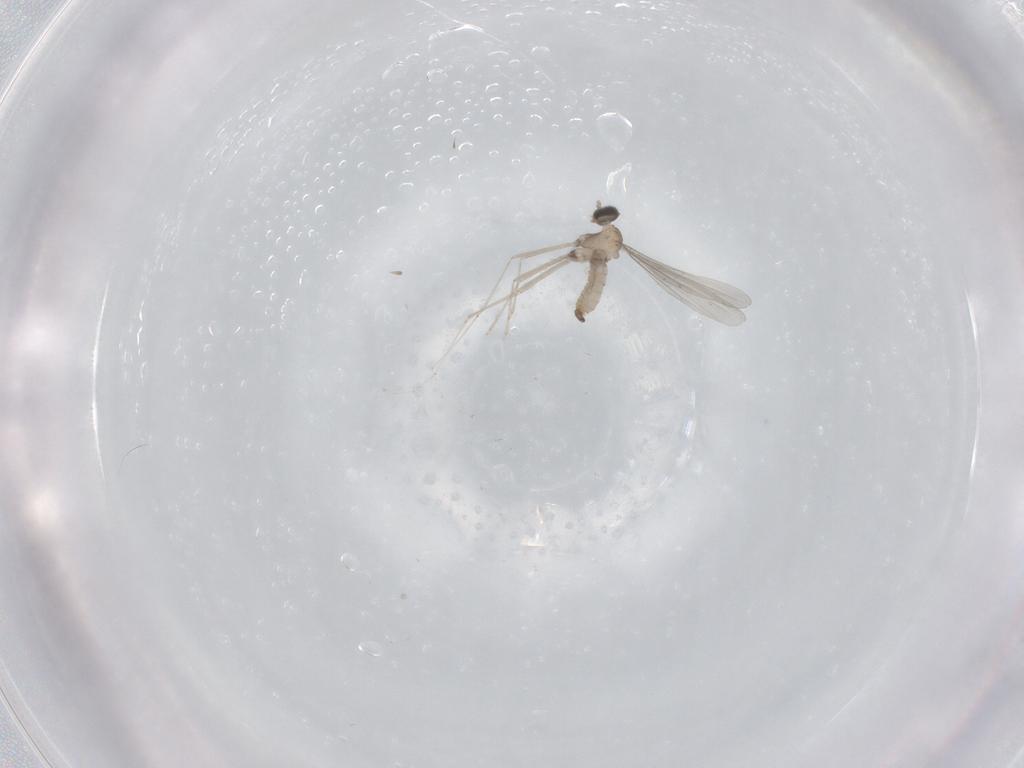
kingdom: Animalia
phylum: Arthropoda
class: Insecta
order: Diptera
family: Cecidomyiidae
